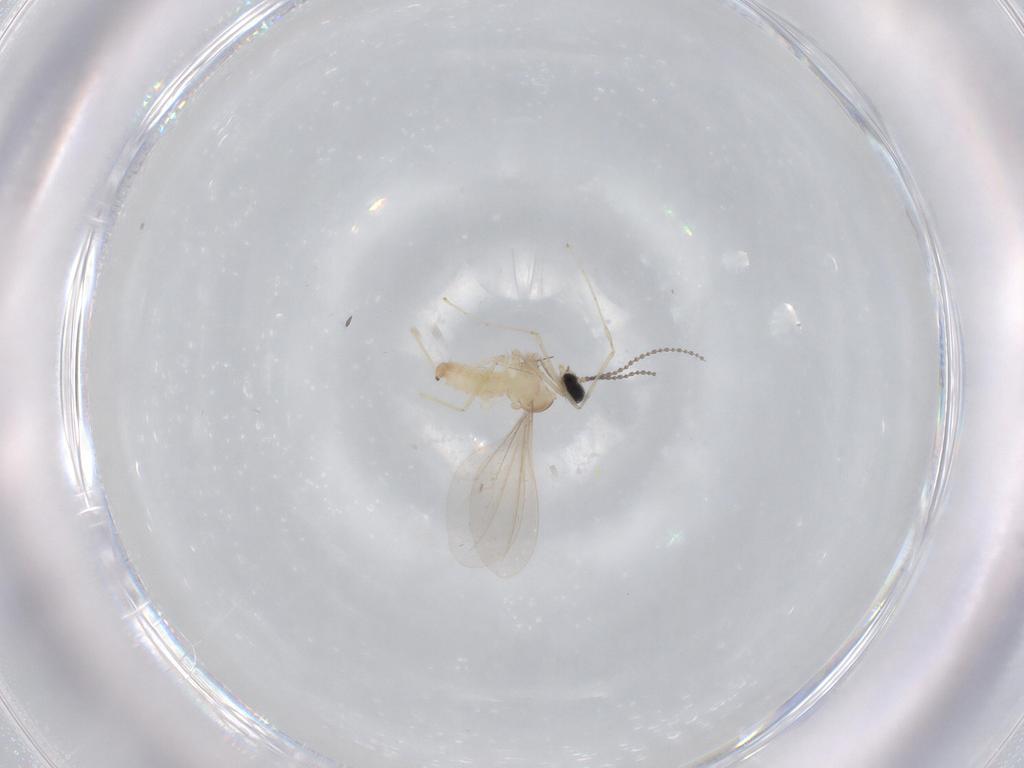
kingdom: Animalia
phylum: Arthropoda
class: Insecta
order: Diptera
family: Cecidomyiidae
